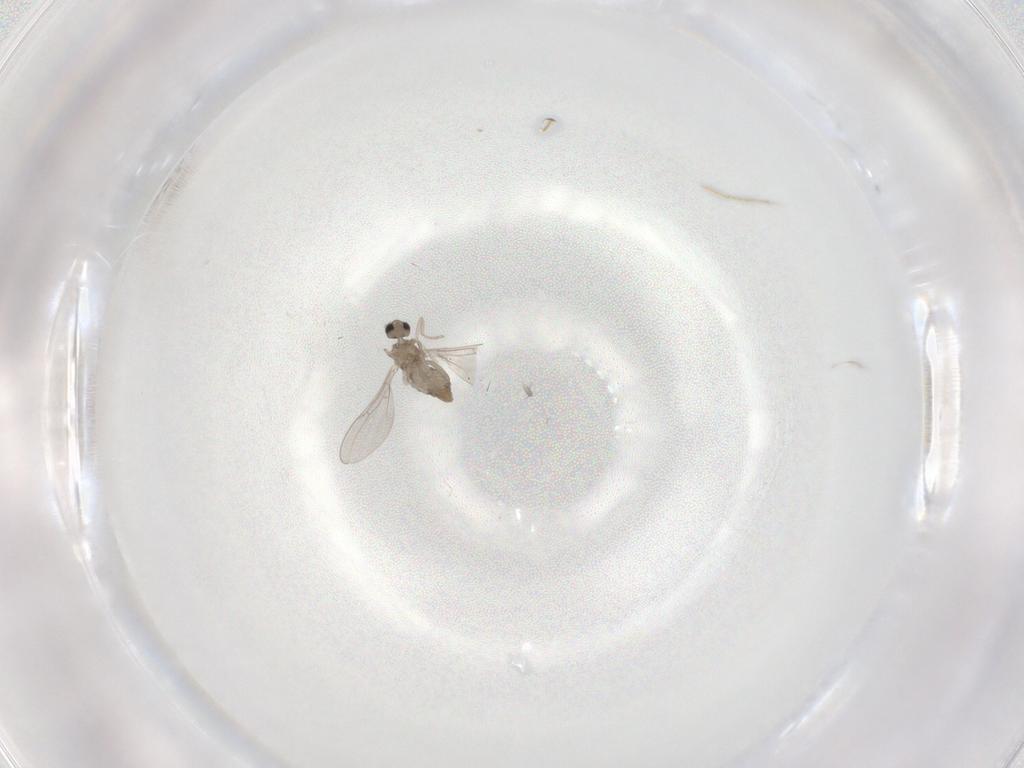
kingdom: Animalia
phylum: Arthropoda
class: Insecta
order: Diptera
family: Cecidomyiidae
